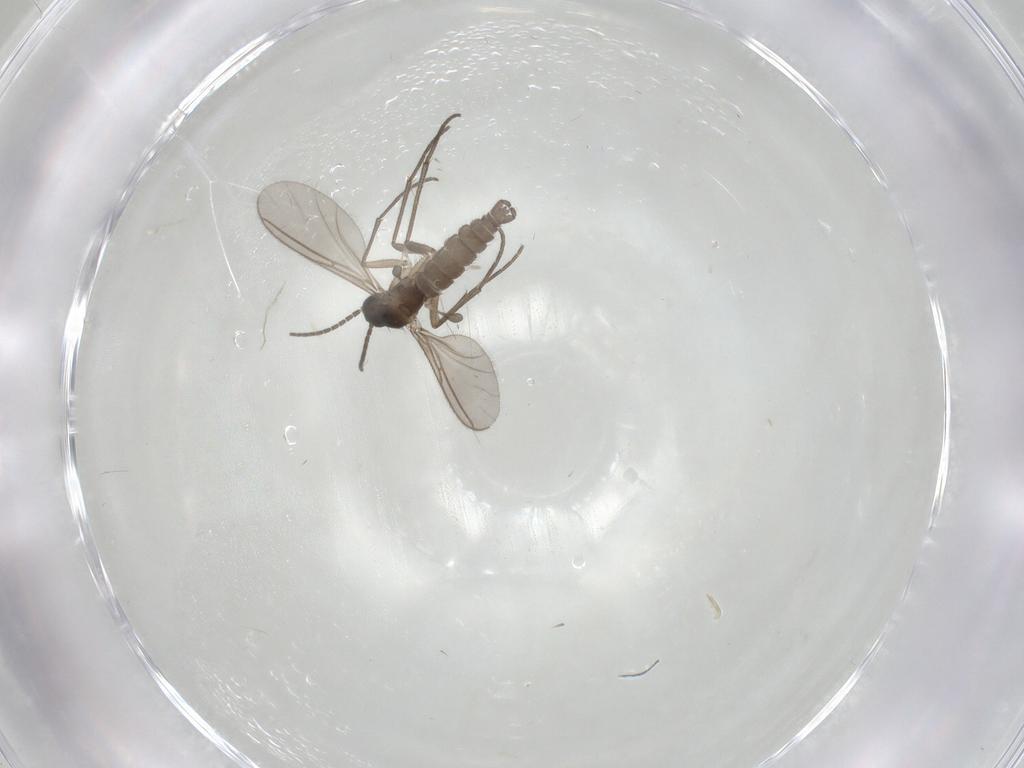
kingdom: Animalia
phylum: Arthropoda
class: Insecta
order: Diptera
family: Sciaridae
